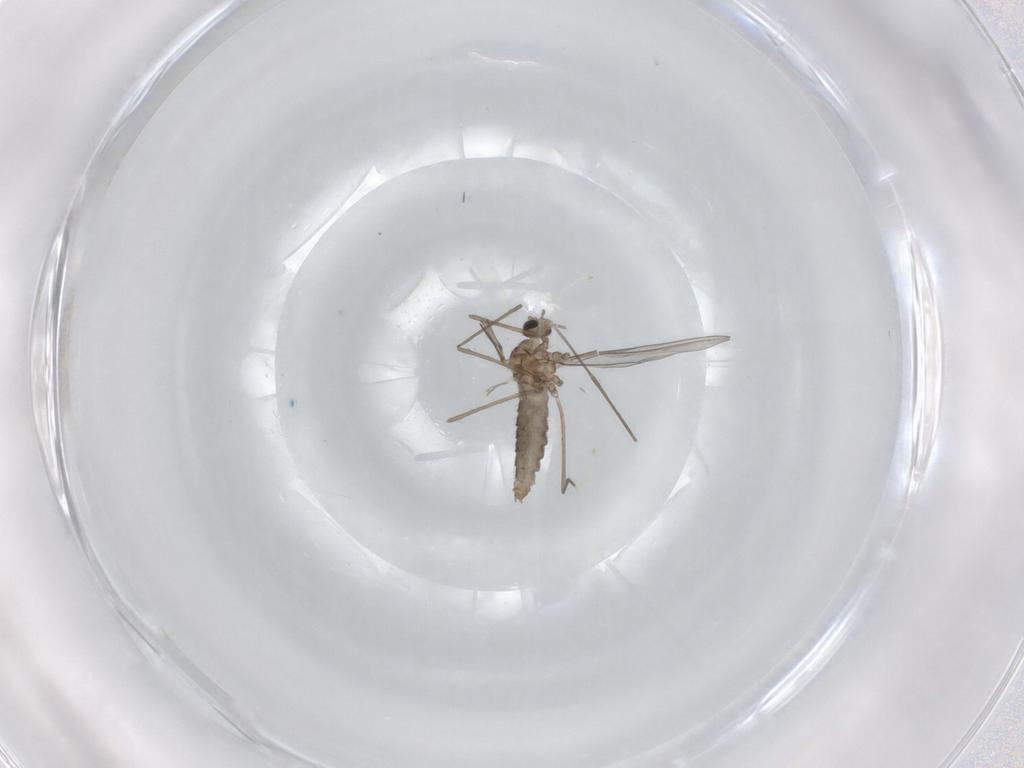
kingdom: Animalia
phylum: Arthropoda
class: Insecta
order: Diptera
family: Cecidomyiidae
